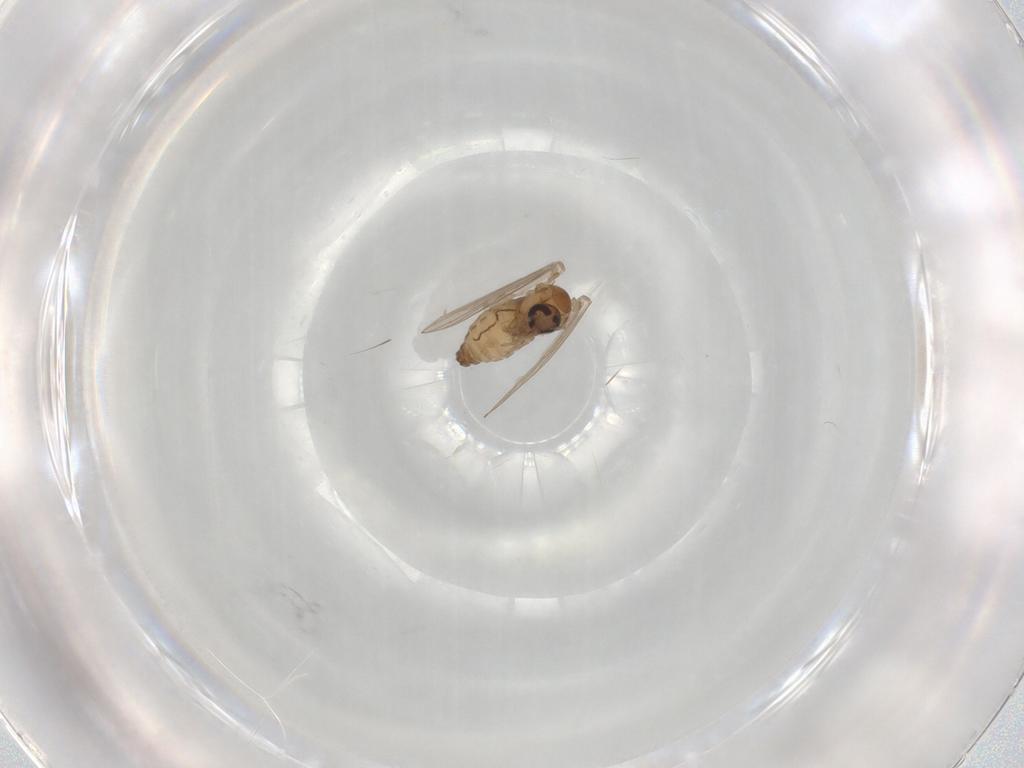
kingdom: Animalia
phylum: Arthropoda
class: Insecta
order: Diptera
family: Psychodidae
